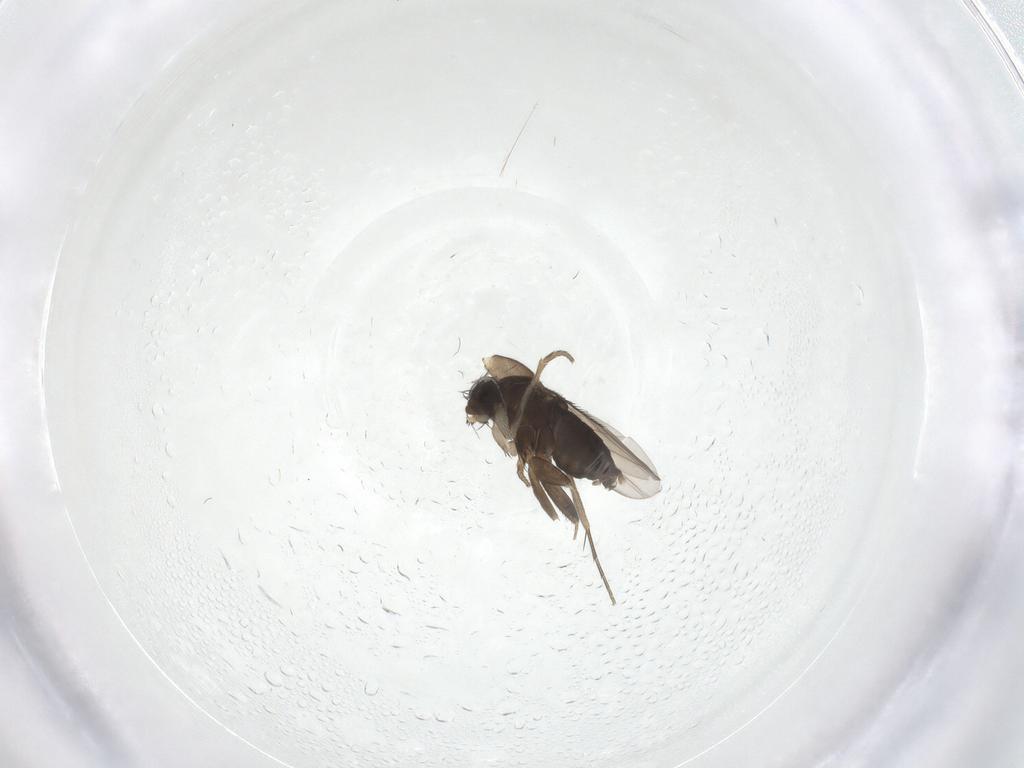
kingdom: Animalia
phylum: Arthropoda
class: Insecta
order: Diptera
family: Phoridae
